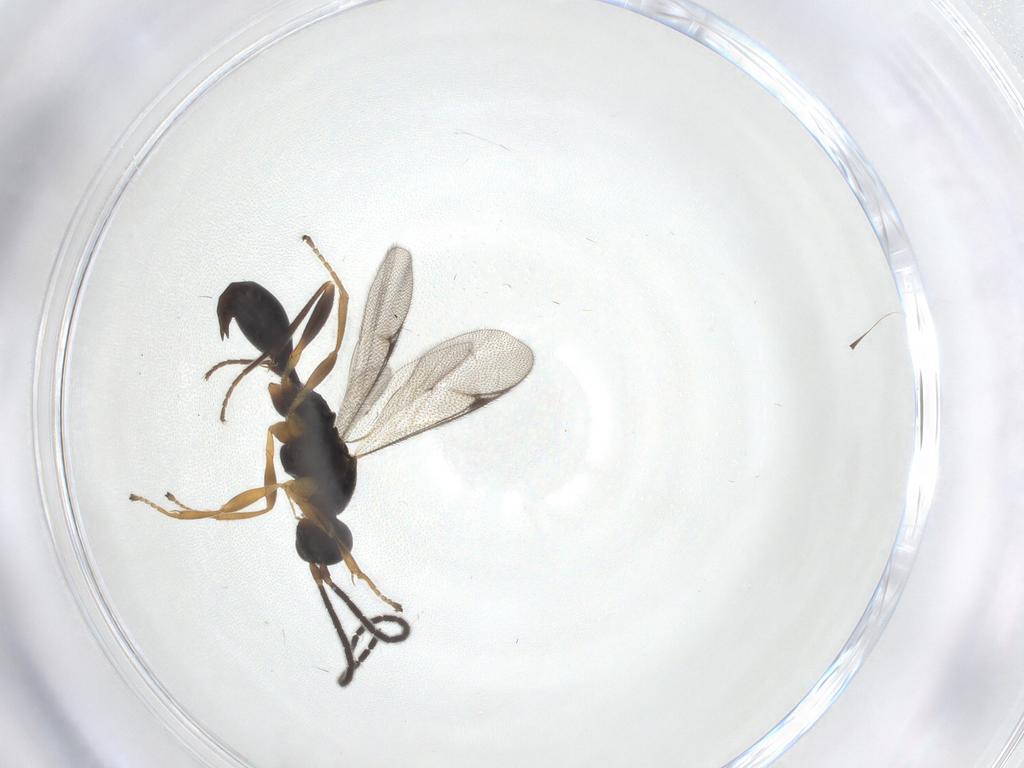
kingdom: Animalia
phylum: Arthropoda
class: Insecta
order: Hymenoptera
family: Proctotrupidae
